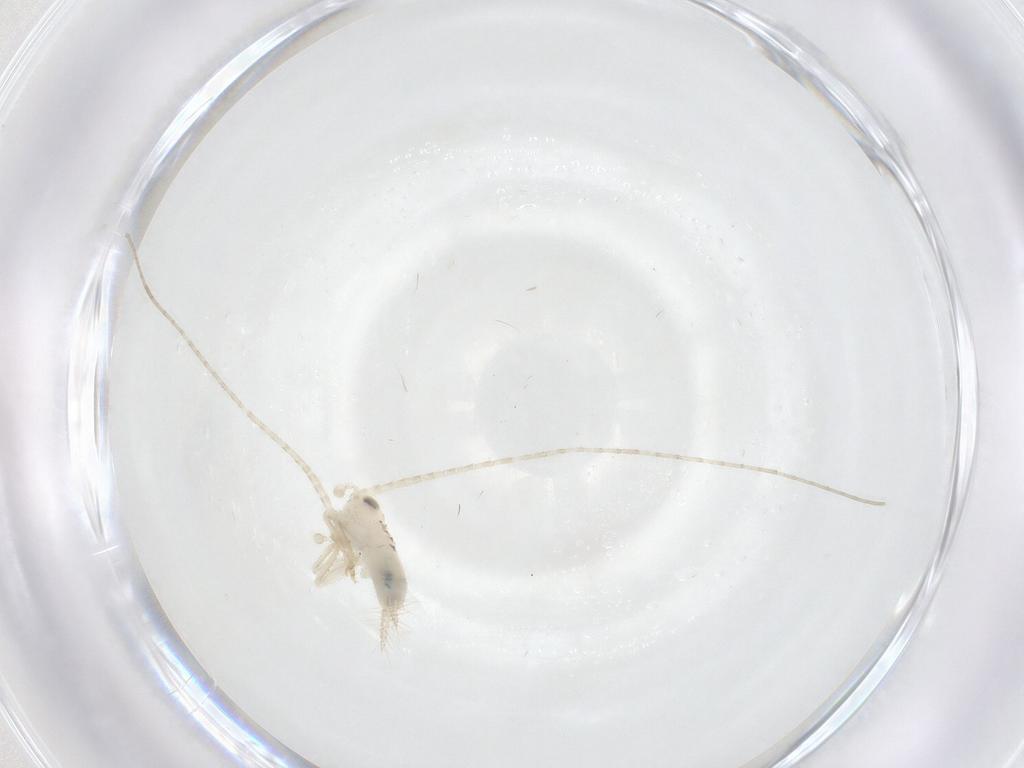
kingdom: Animalia
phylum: Arthropoda
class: Insecta
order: Orthoptera
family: Trigonidiidae
